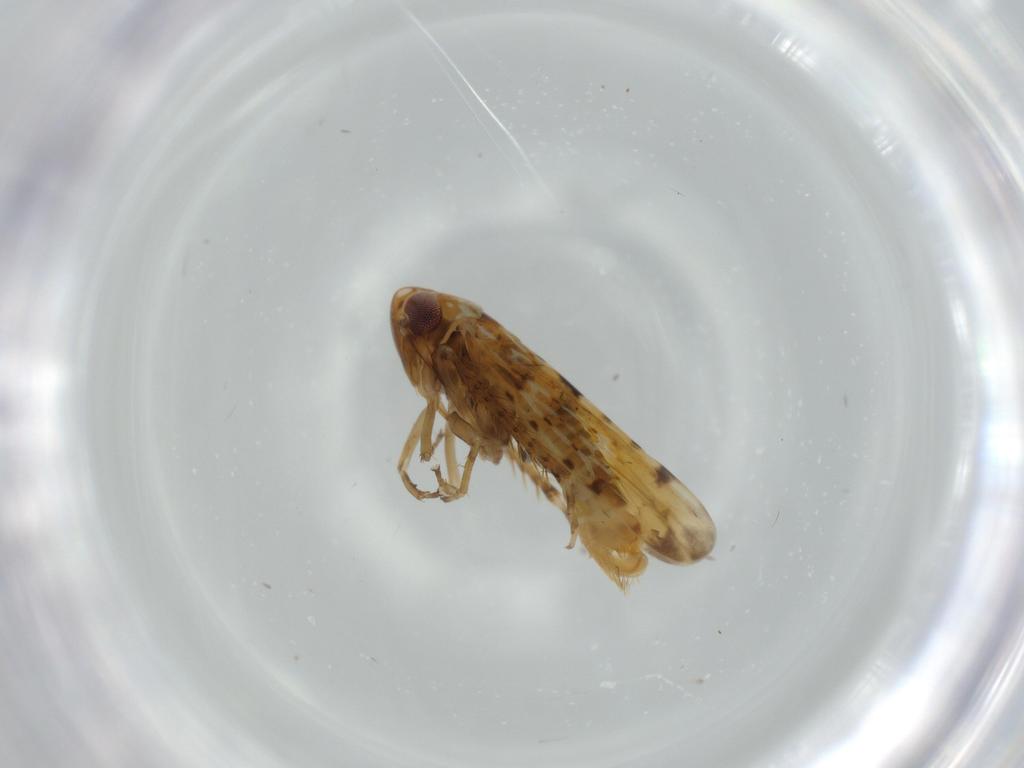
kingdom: Animalia
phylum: Arthropoda
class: Insecta
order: Hemiptera
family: Cicadellidae
